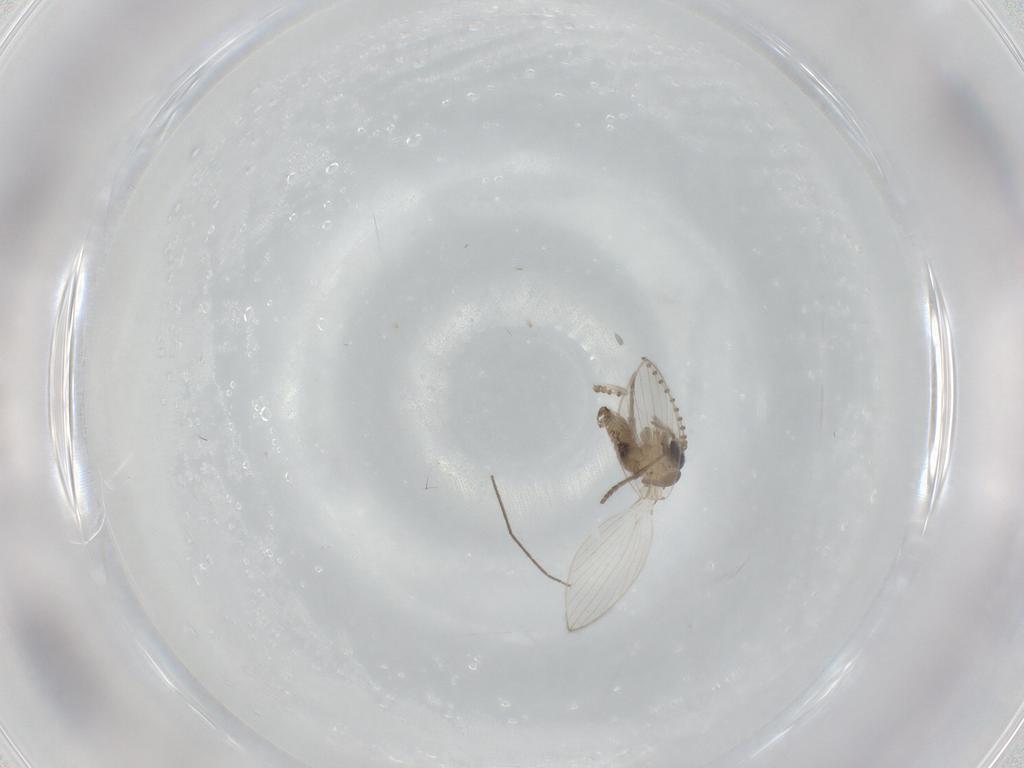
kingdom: Animalia
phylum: Arthropoda
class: Insecta
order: Diptera
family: Psychodidae
